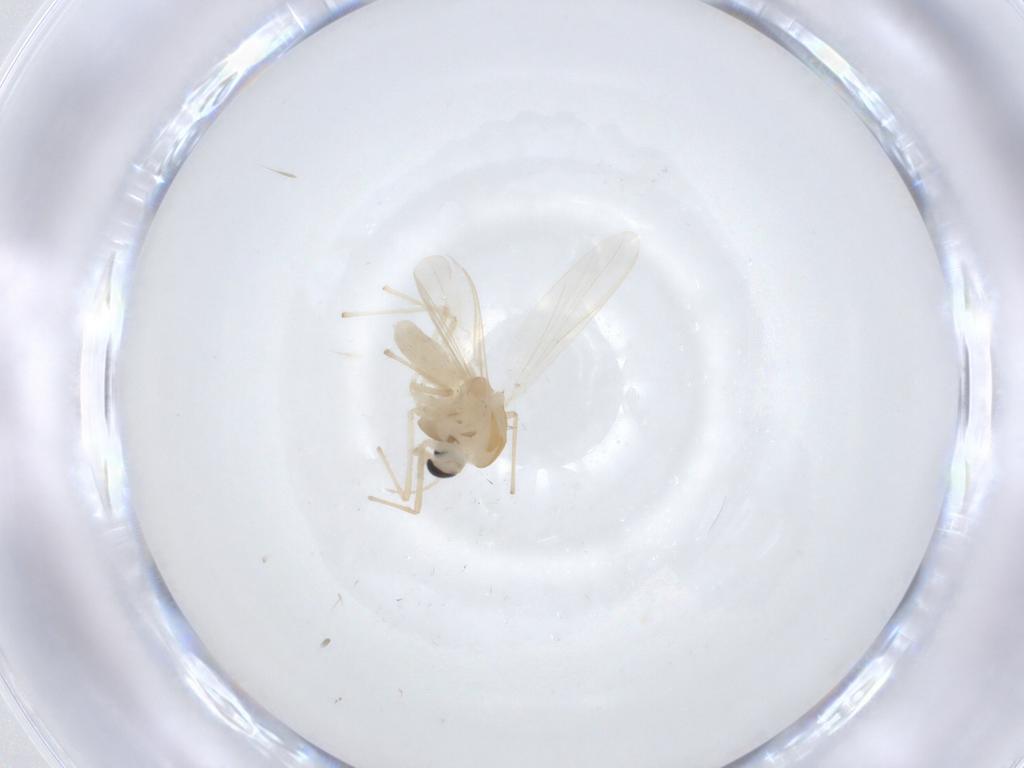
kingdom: Animalia
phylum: Arthropoda
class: Insecta
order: Diptera
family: Chironomidae
